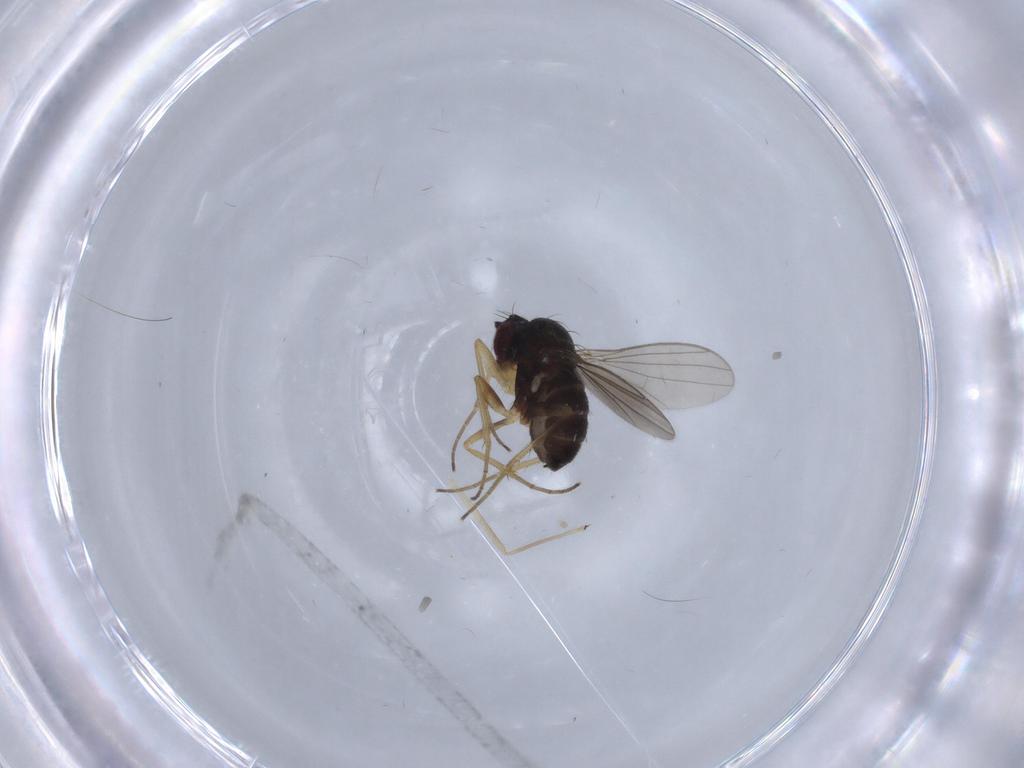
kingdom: Animalia
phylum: Arthropoda
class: Insecta
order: Diptera
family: Dolichopodidae
